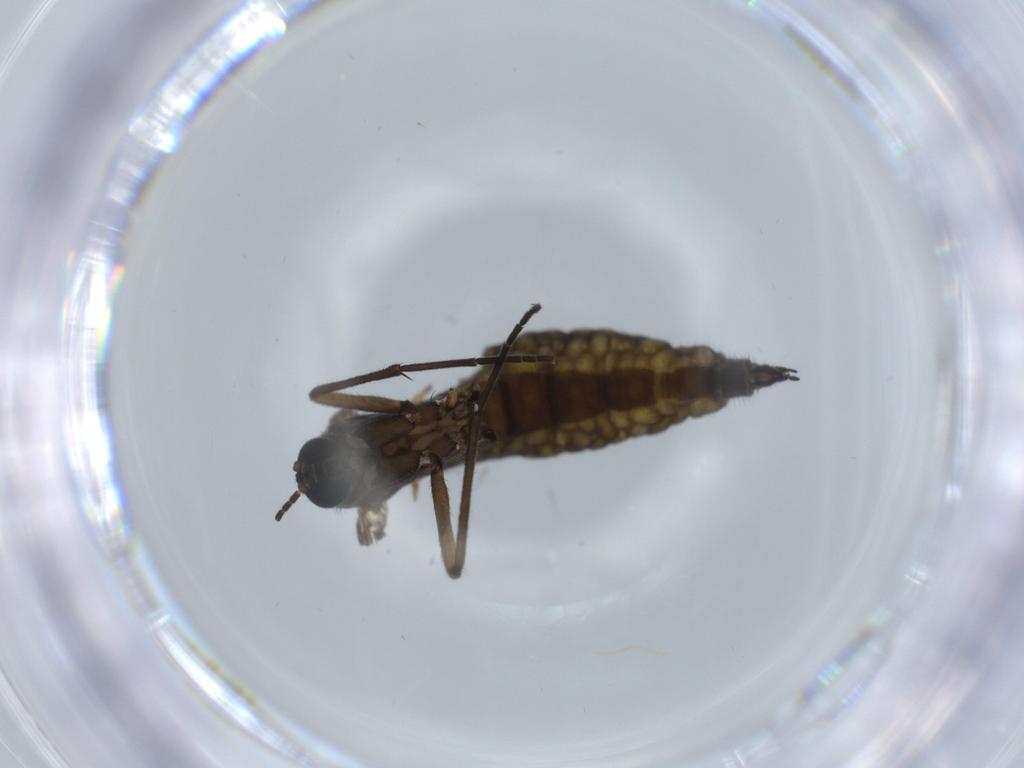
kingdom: Animalia
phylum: Arthropoda
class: Insecta
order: Diptera
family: Sciaridae
